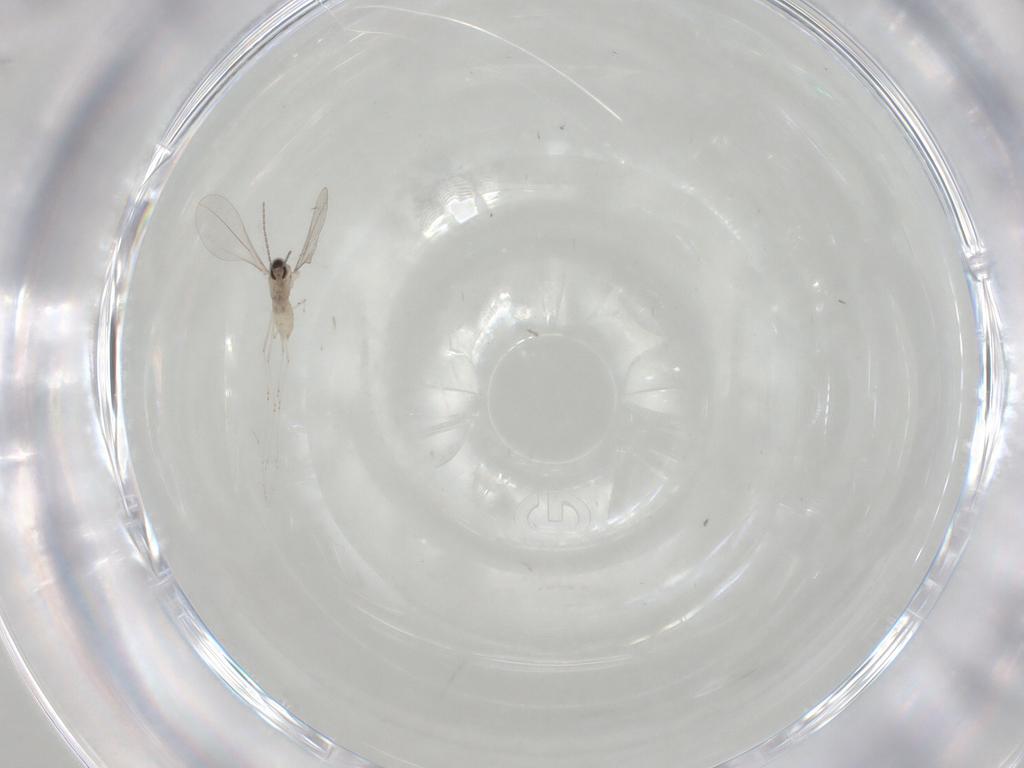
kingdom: Animalia
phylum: Arthropoda
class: Insecta
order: Diptera
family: Cecidomyiidae
